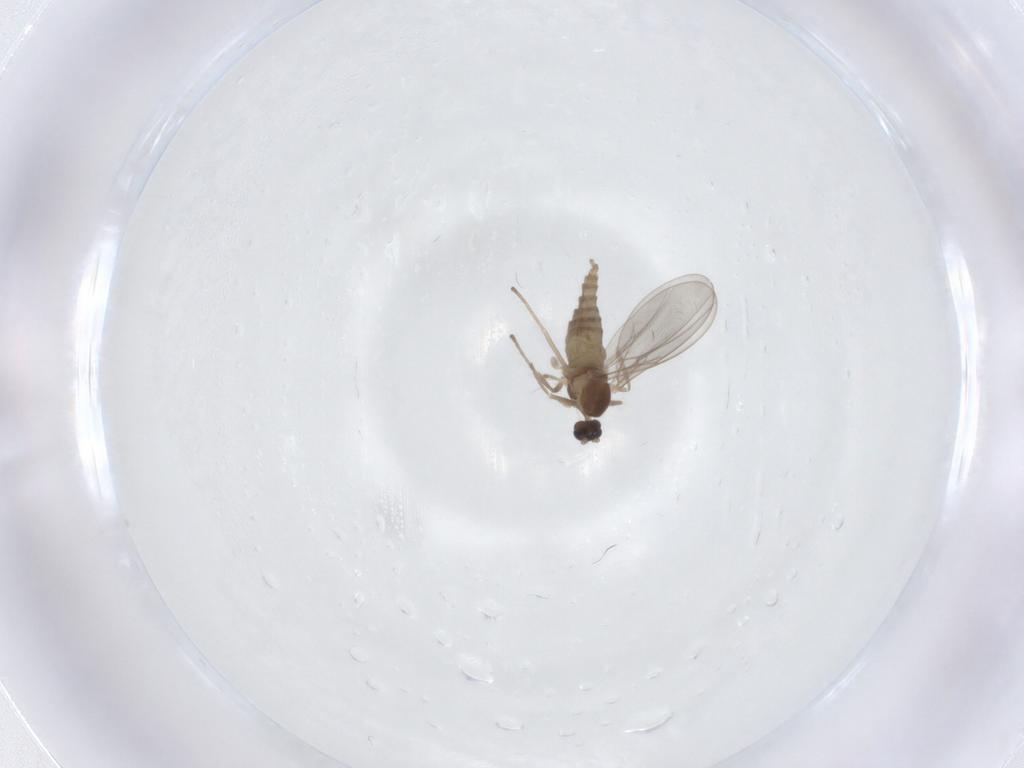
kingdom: Animalia
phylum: Arthropoda
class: Insecta
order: Diptera
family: Cecidomyiidae
